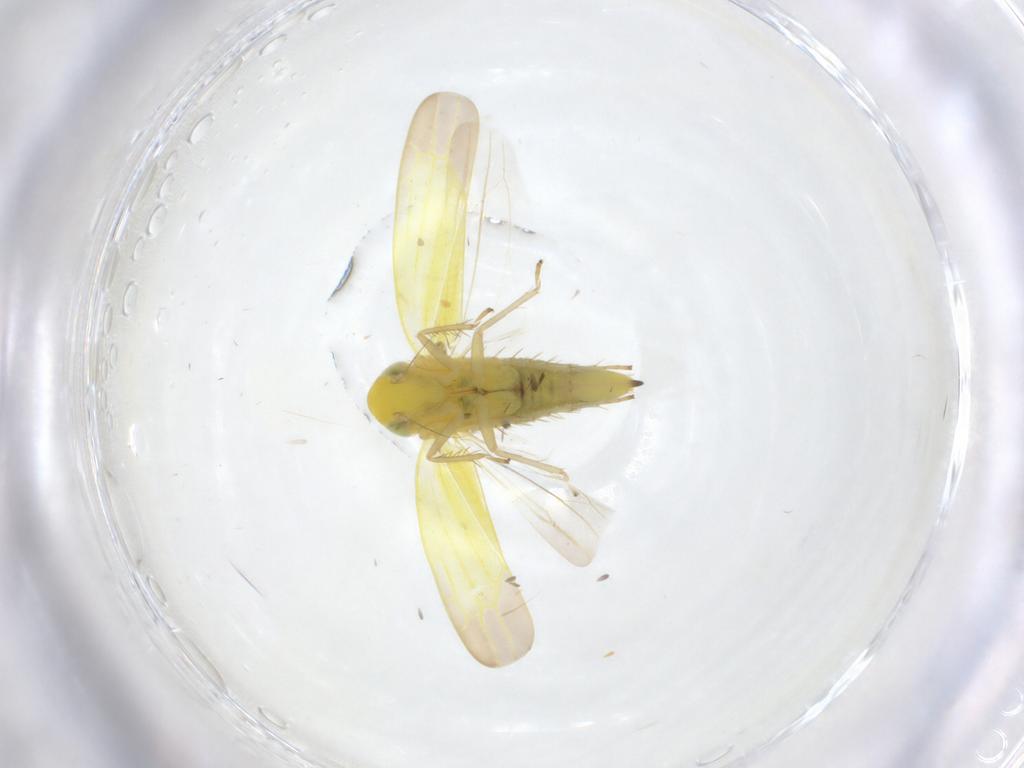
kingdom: Animalia
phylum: Arthropoda
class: Insecta
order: Hemiptera
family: Cicadellidae
